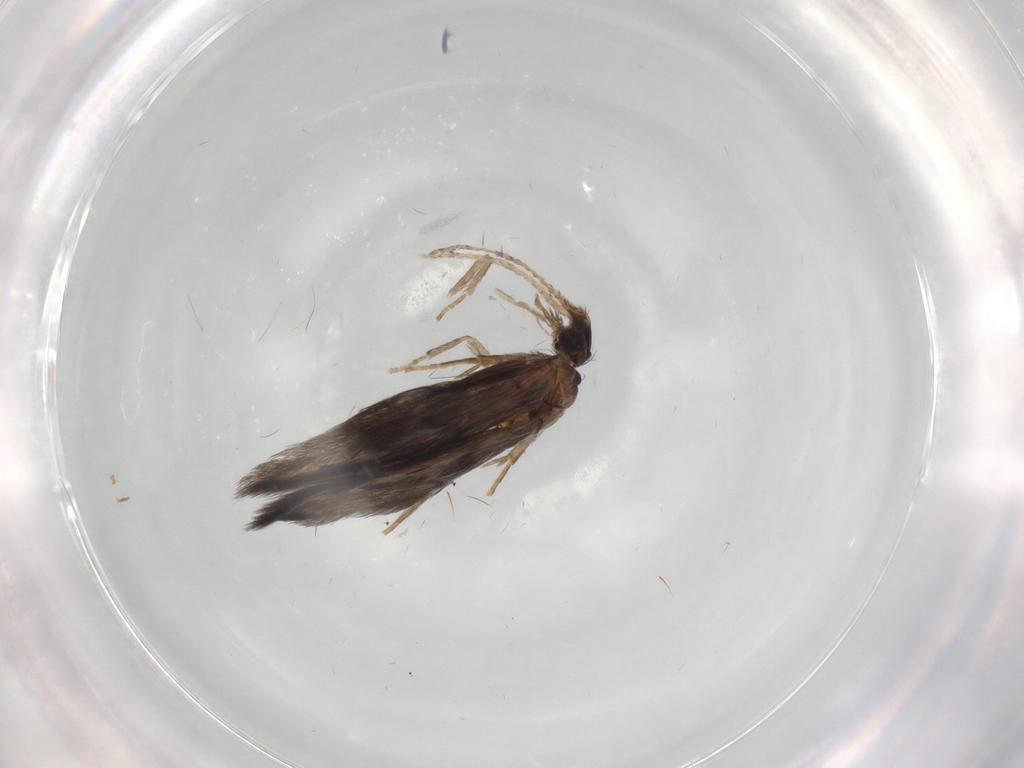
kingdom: Animalia
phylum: Arthropoda
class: Insecta
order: Trichoptera
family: Hydroptilidae
